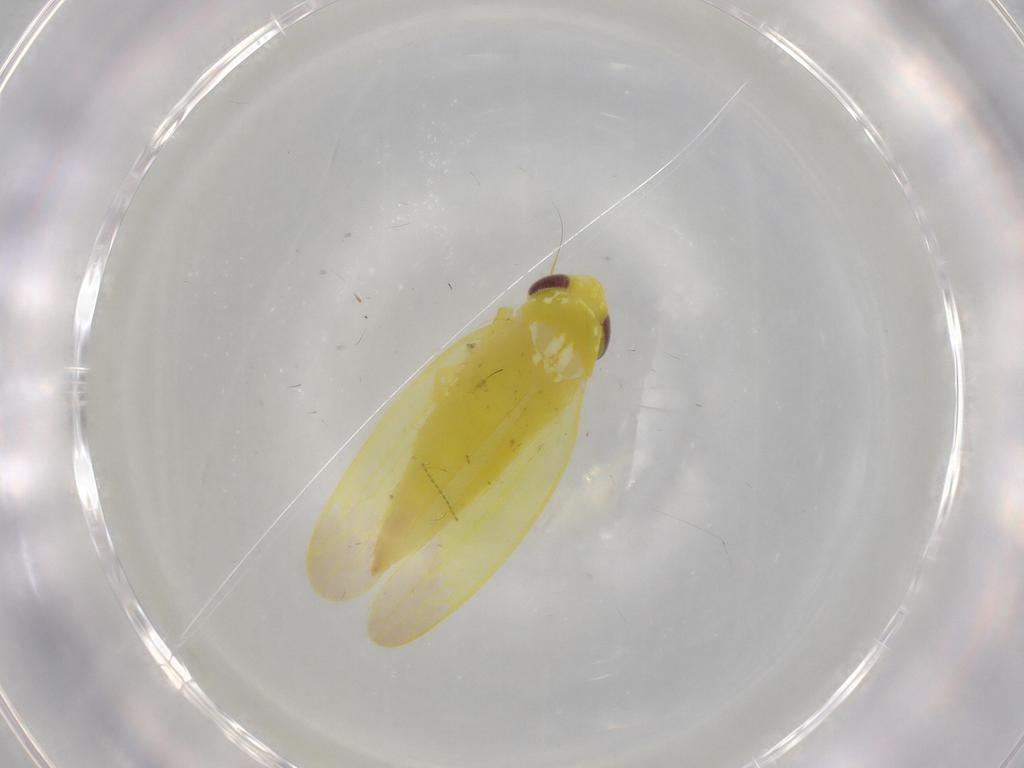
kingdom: Animalia
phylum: Arthropoda
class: Insecta
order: Hemiptera
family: Cicadellidae
